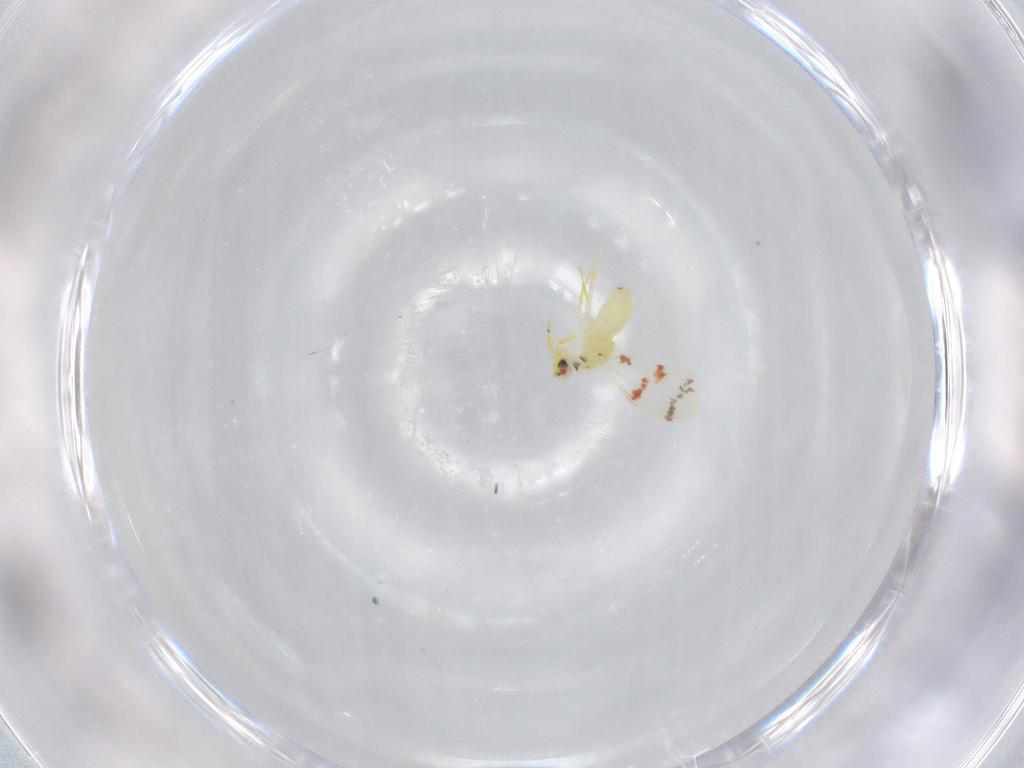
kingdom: Animalia
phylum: Arthropoda
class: Insecta
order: Hemiptera
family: Aleyrodidae
